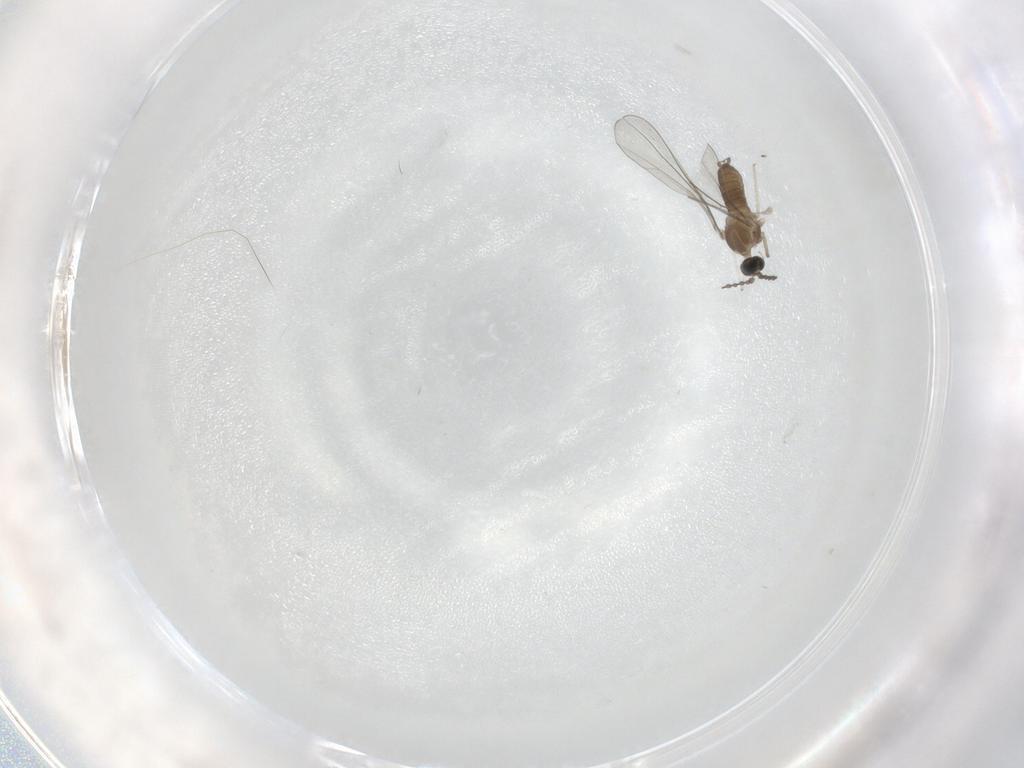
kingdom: Animalia
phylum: Arthropoda
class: Insecta
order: Diptera
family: Cecidomyiidae
